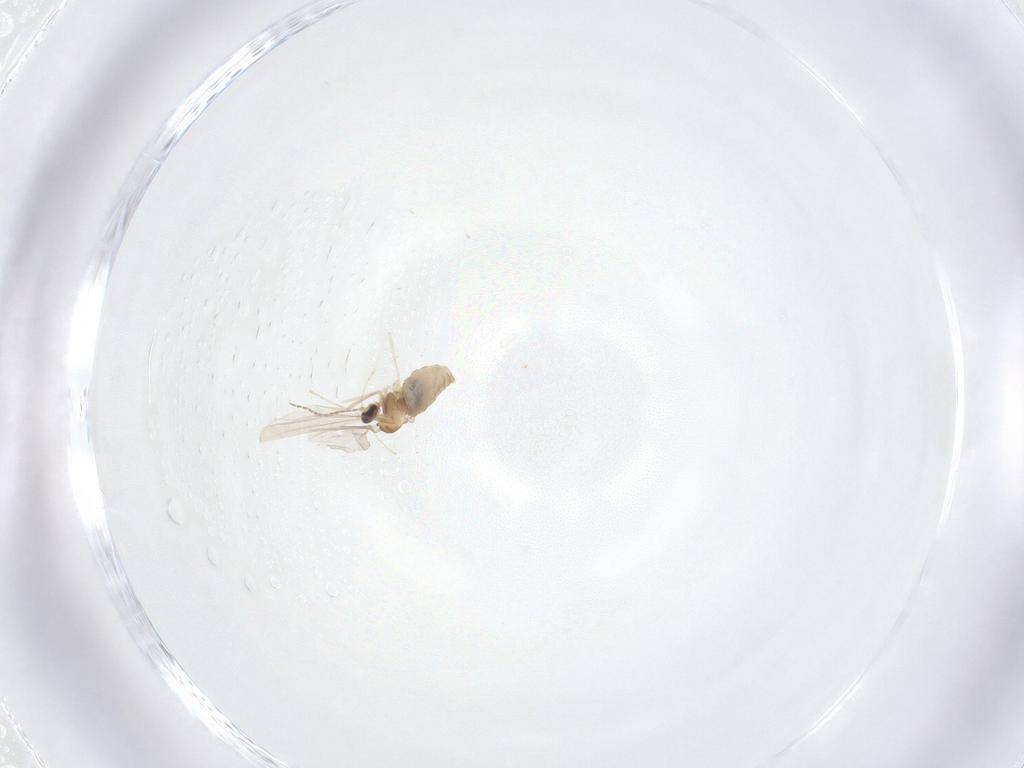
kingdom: Animalia
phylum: Arthropoda
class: Insecta
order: Diptera
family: Cecidomyiidae
